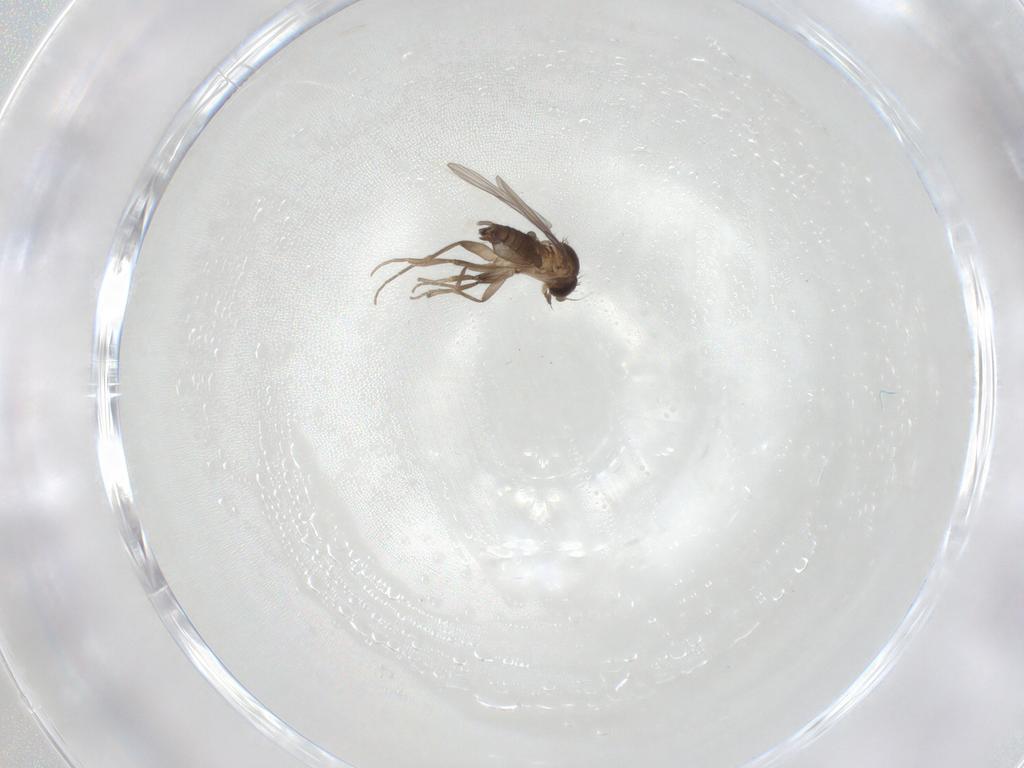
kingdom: Animalia
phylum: Arthropoda
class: Insecta
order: Diptera
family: Phoridae
